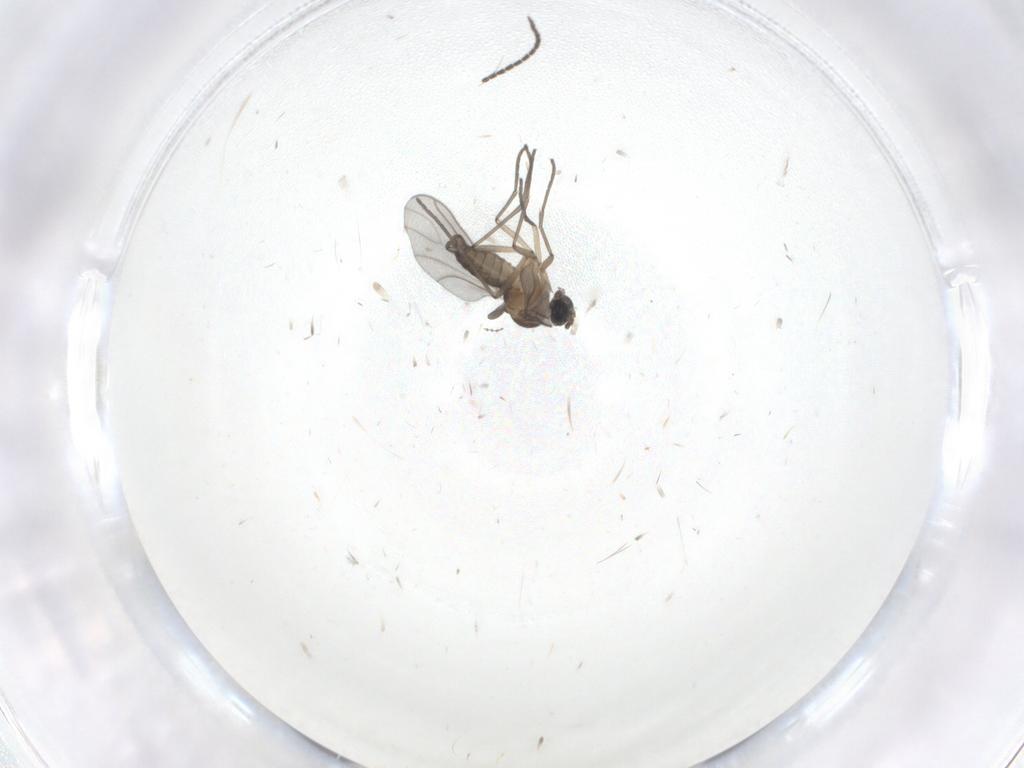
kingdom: Animalia
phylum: Arthropoda
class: Insecta
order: Diptera
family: Sciaridae
